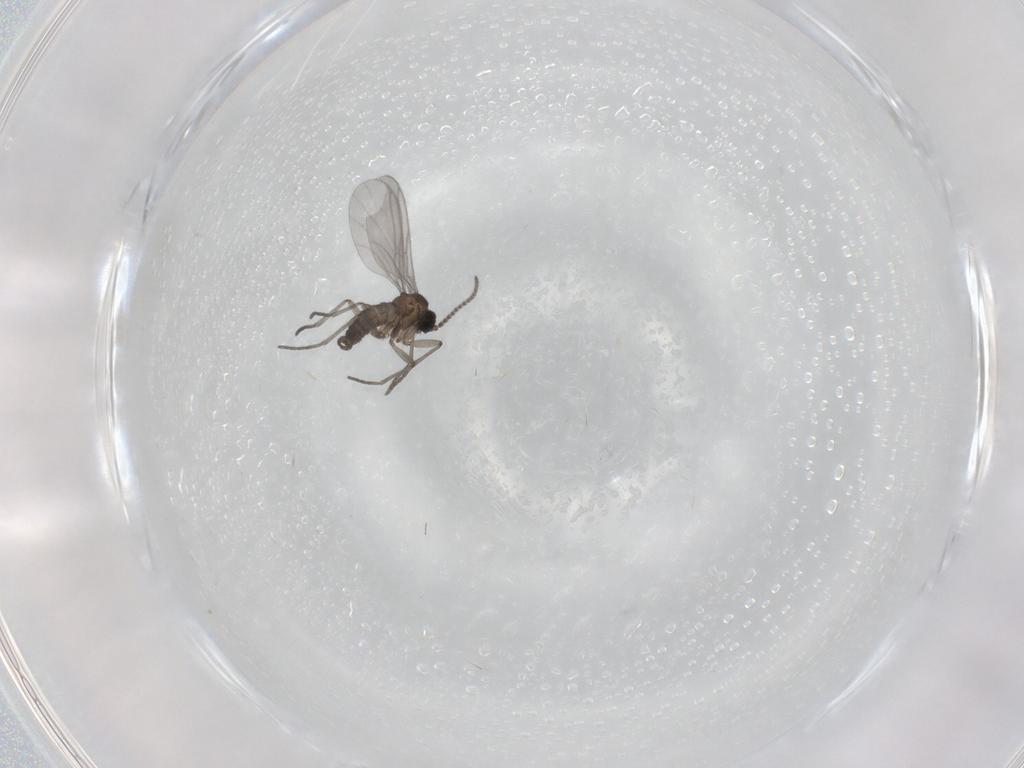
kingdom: Animalia
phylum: Arthropoda
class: Insecta
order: Diptera
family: Sciaridae
